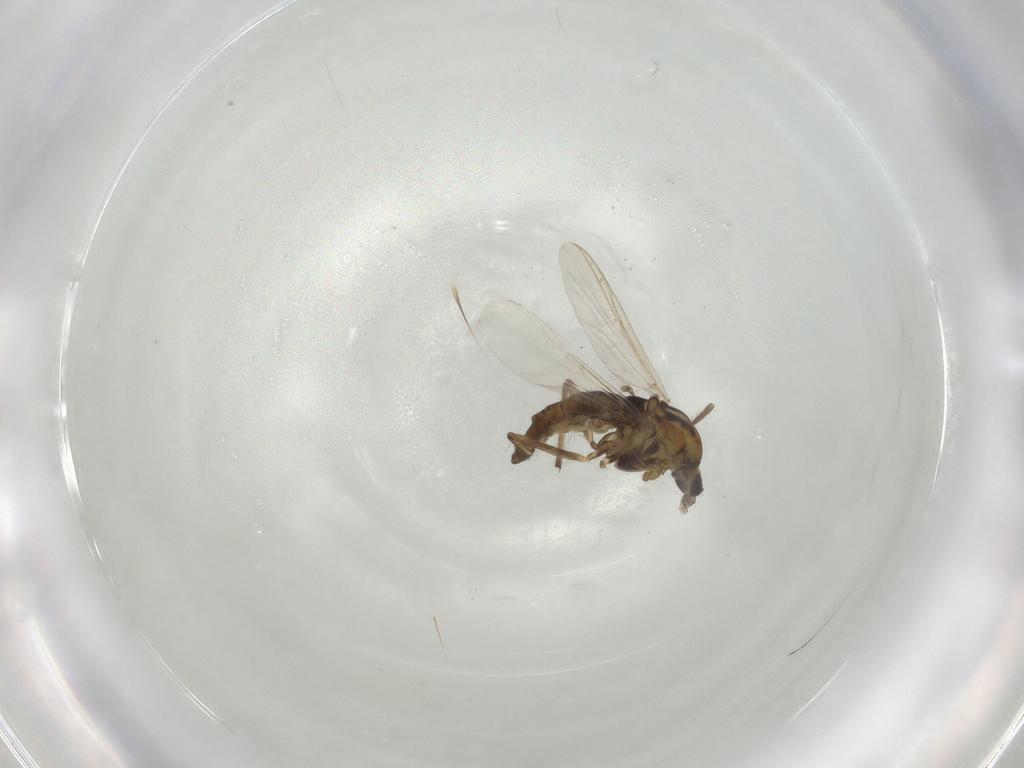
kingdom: Animalia
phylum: Arthropoda
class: Insecta
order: Diptera
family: Chironomidae
